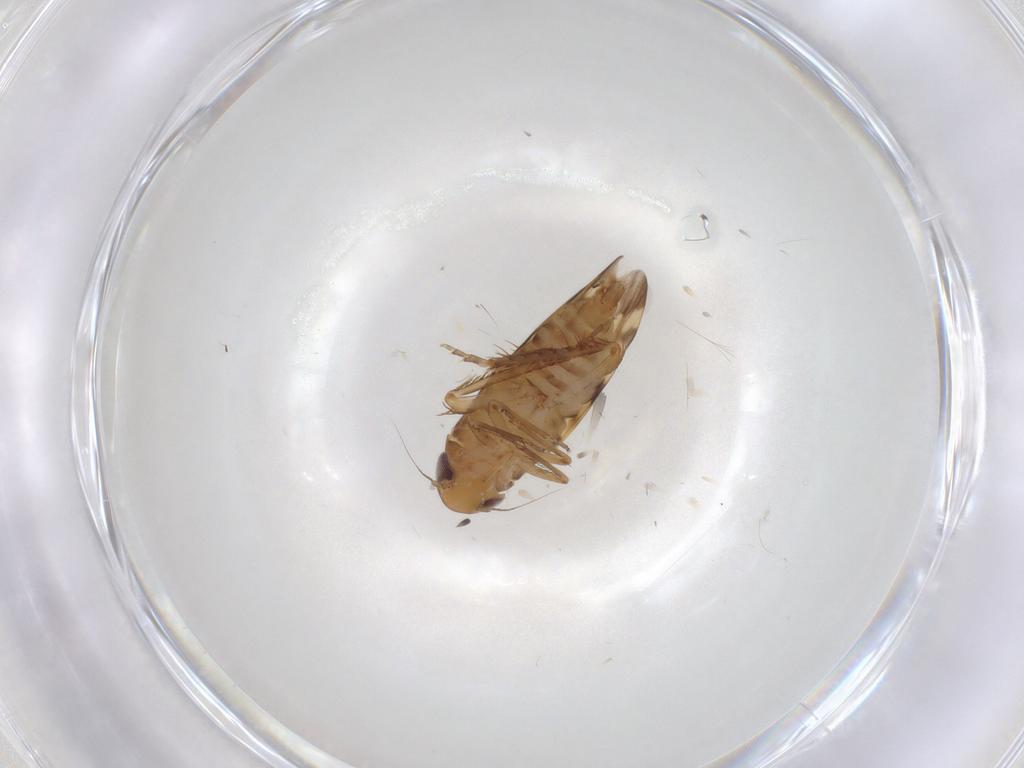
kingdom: Animalia
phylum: Arthropoda
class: Insecta
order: Hemiptera
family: Cicadellidae
